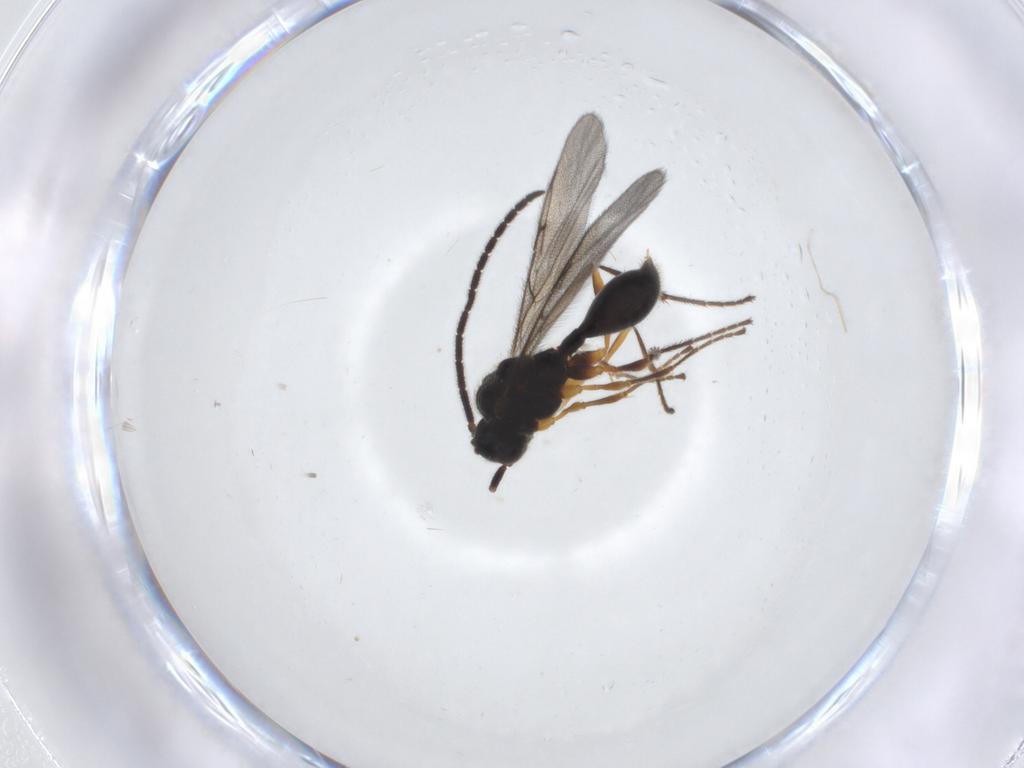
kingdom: Animalia
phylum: Arthropoda
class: Insecta
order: Hymenoptera
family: Diapriidae
